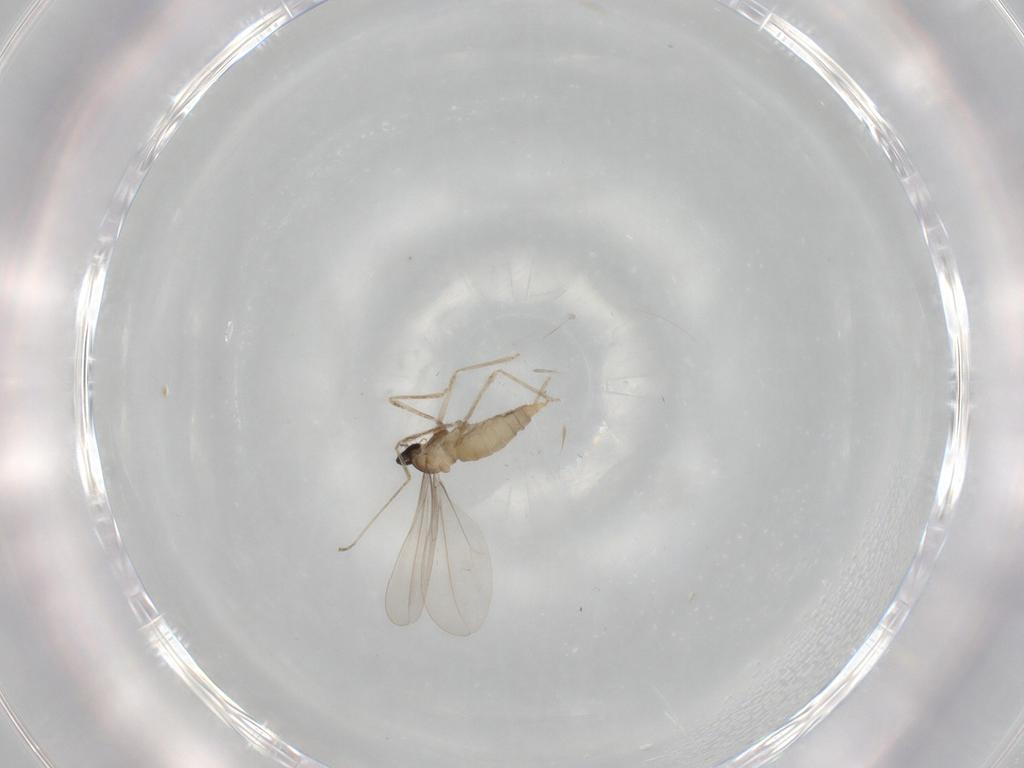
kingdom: Animalia
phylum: Arthropoda
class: Insecta
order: Diptera
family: Cecidomyiidae
